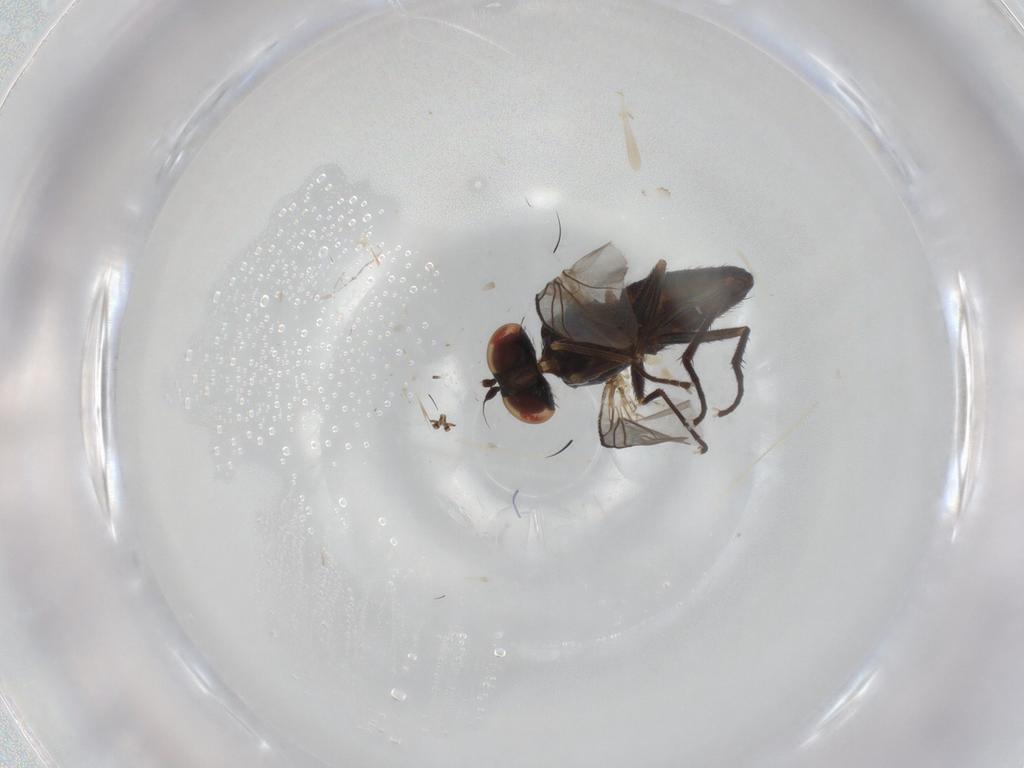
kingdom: Animalia
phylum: Arthropoda
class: Insecta
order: Diptera
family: Dolichopodidae
